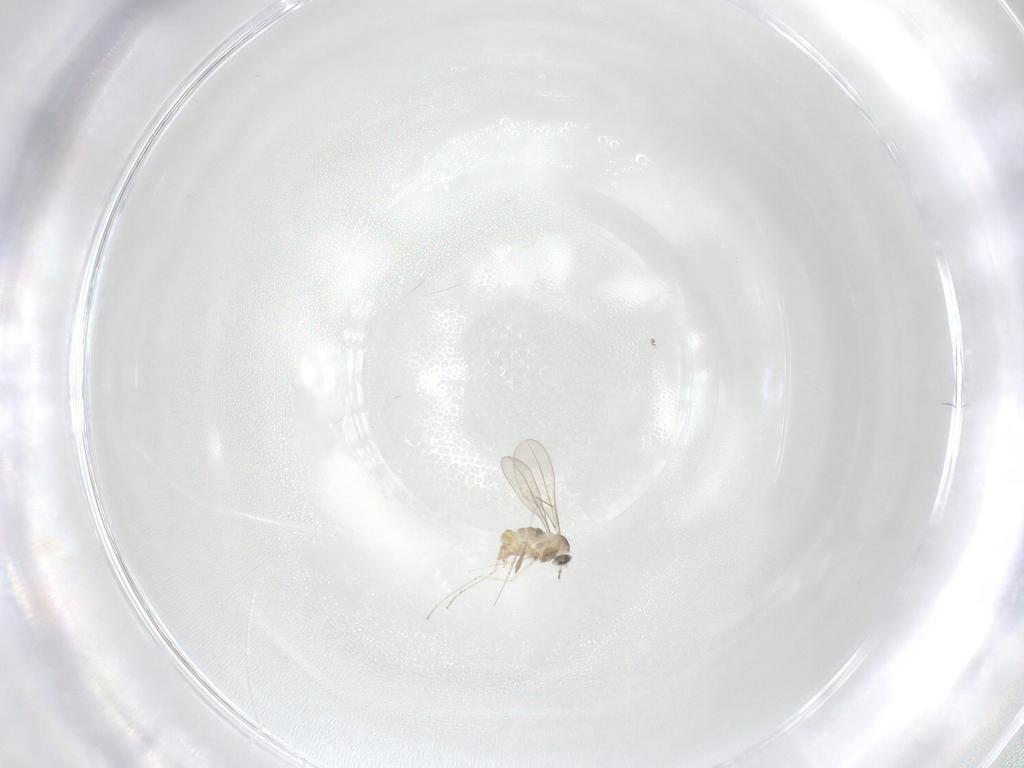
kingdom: Animalia
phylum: Arthropoda
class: Insecta
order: Diptera
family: Cecidomyiidae
